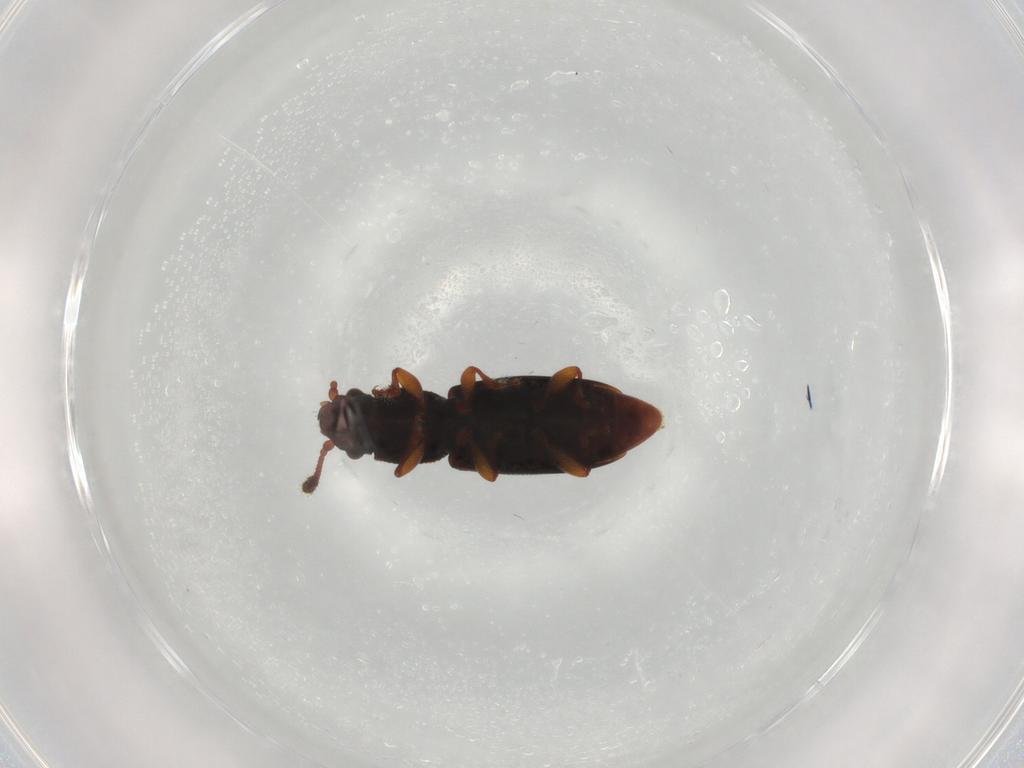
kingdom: Animalia
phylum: Arthropoda
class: Insecta
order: Coleoptera
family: Monotomidae
